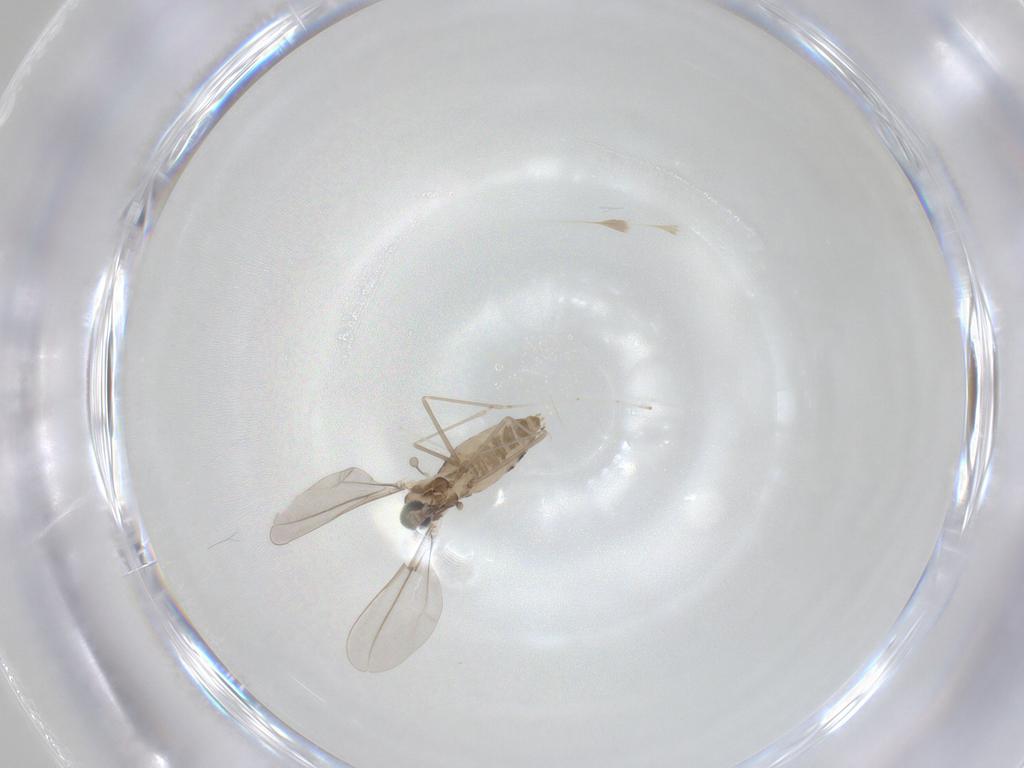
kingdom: Animalia
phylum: Arthropoda
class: Insecta
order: Diptera
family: Cecidomyiidae
